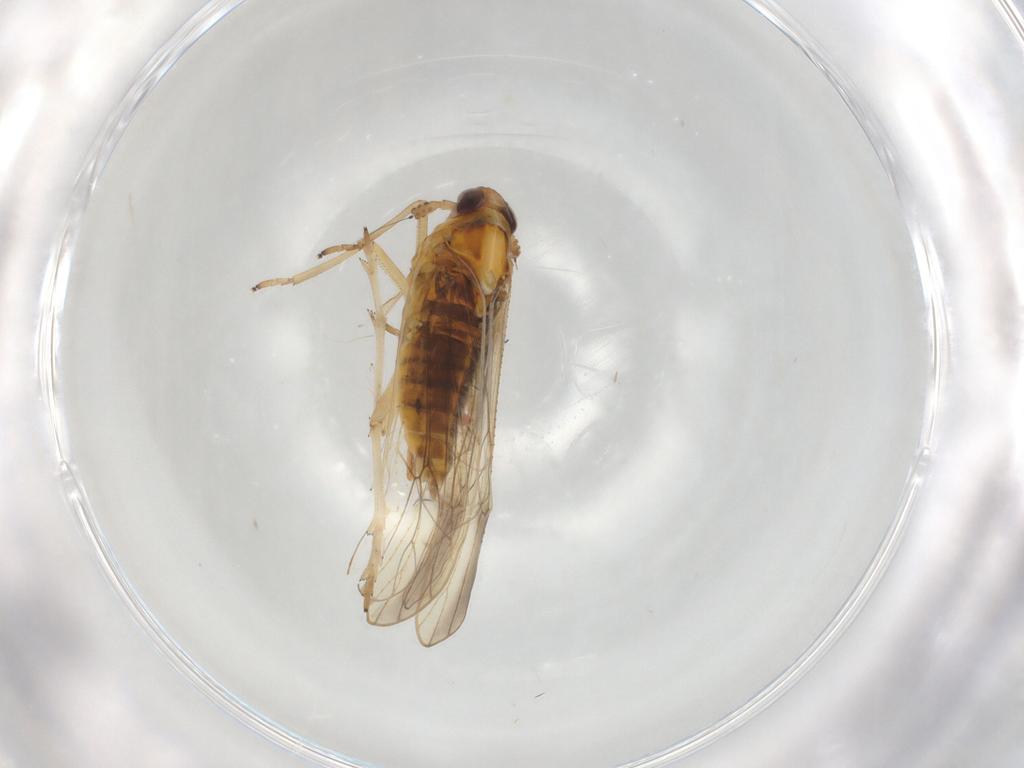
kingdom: Animalia
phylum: Arthropoda
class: Insecta
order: Hemiptera
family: Delphacidae
